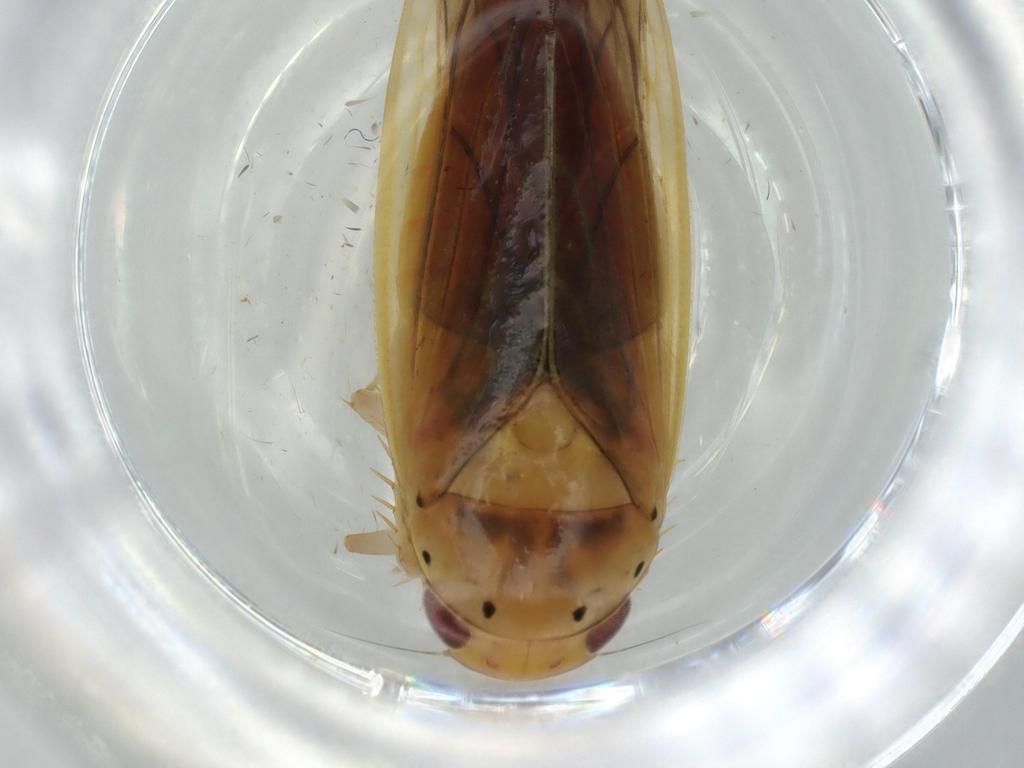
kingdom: Animalia
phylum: Arthropoda
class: Insecta
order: Hemiptera
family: Cicadellidae
